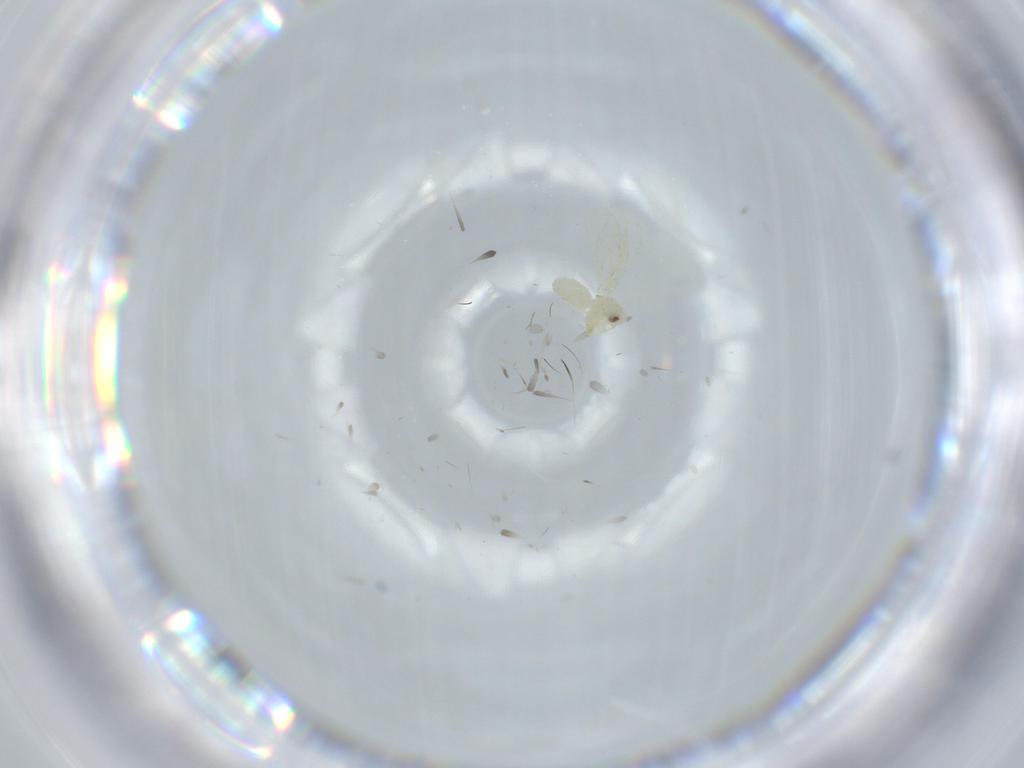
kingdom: Animalia
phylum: Arthropoda
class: Insecta
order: Hemiptera
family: Aleyrodidae
